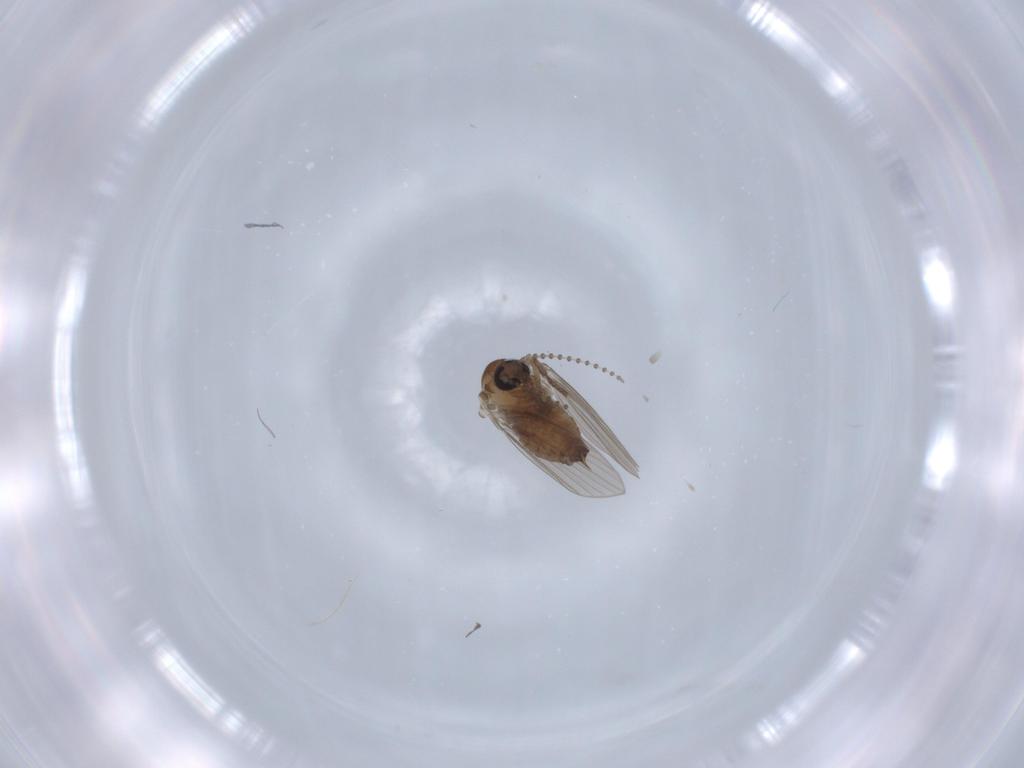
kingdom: Animalia
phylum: Arthropoda
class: Insecta
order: Diptera
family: Psychodidae
